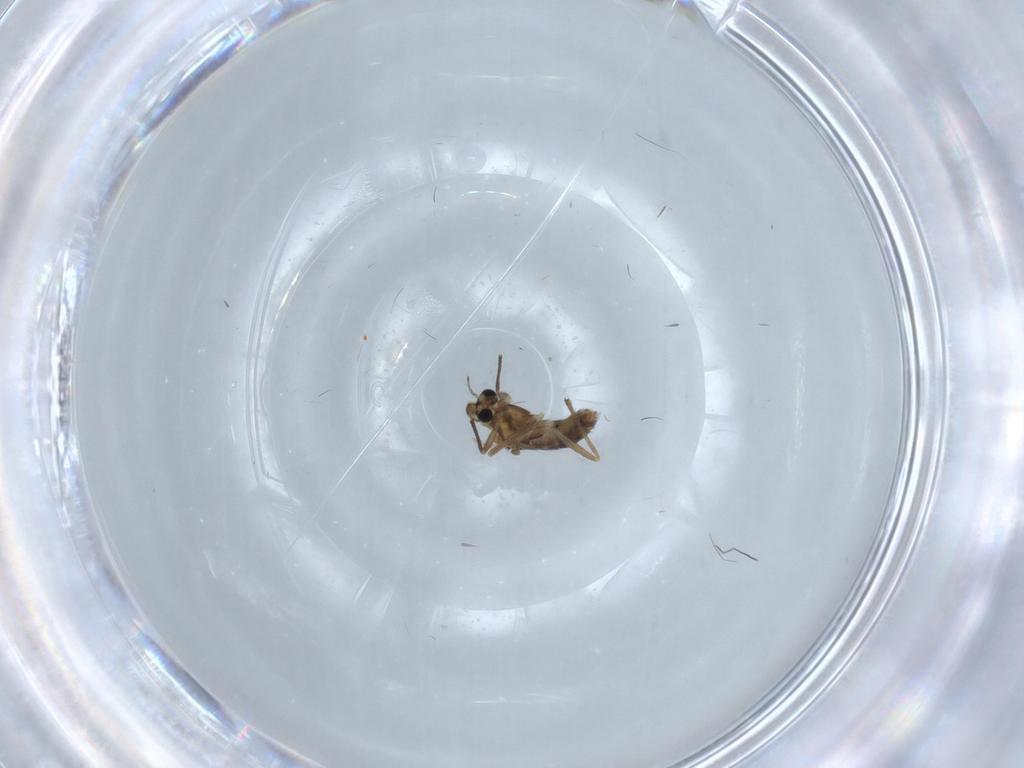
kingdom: Animalia
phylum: Arthropoda
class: Insecta
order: Diptera
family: Chironomidae
